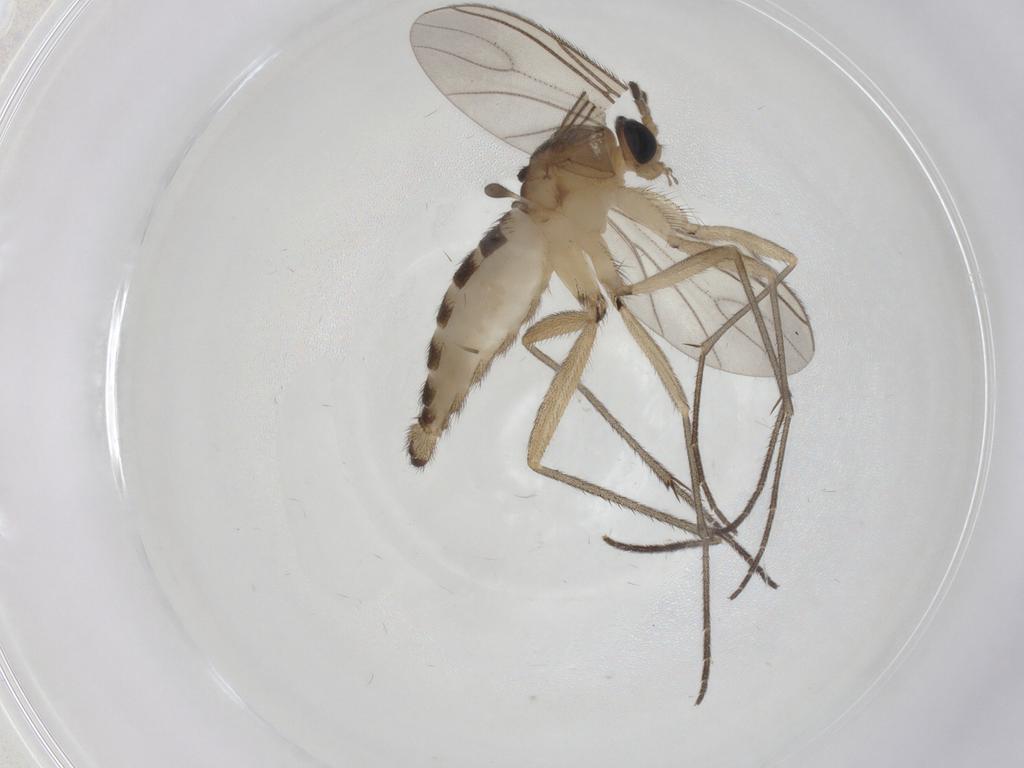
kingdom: Animalia
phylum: Arthropoda
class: Insecta
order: Diptera
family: Sciaridae
